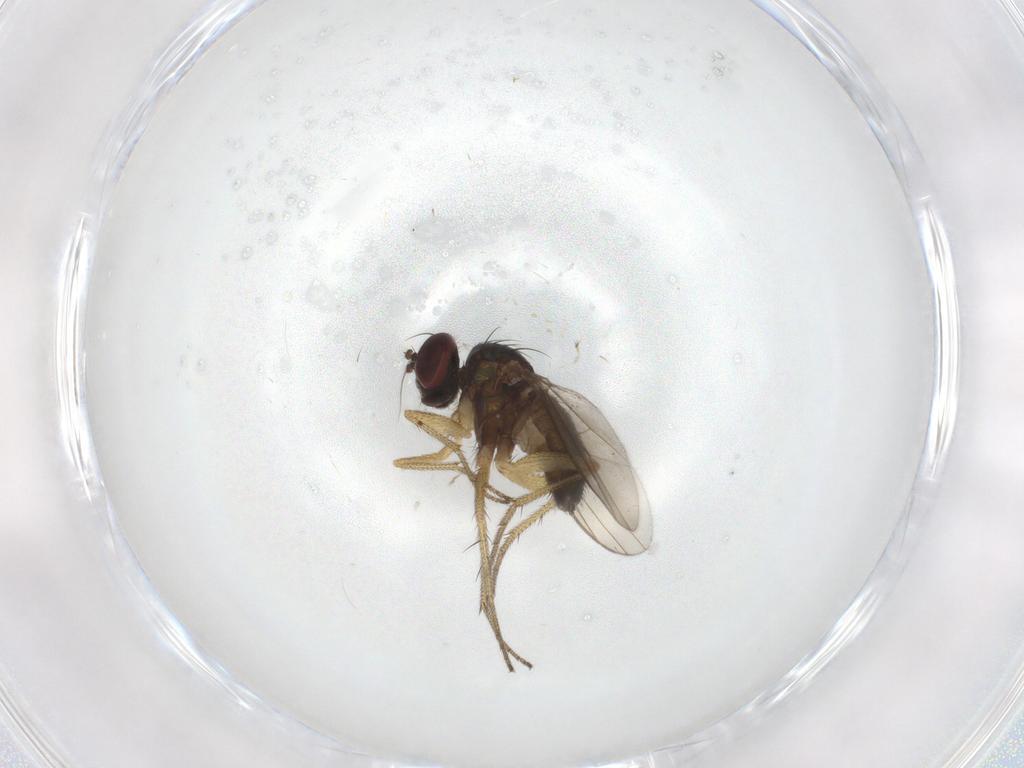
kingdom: Animalia
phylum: Arthropoda
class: Insecta
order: Diptera
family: Dolichopodidae
